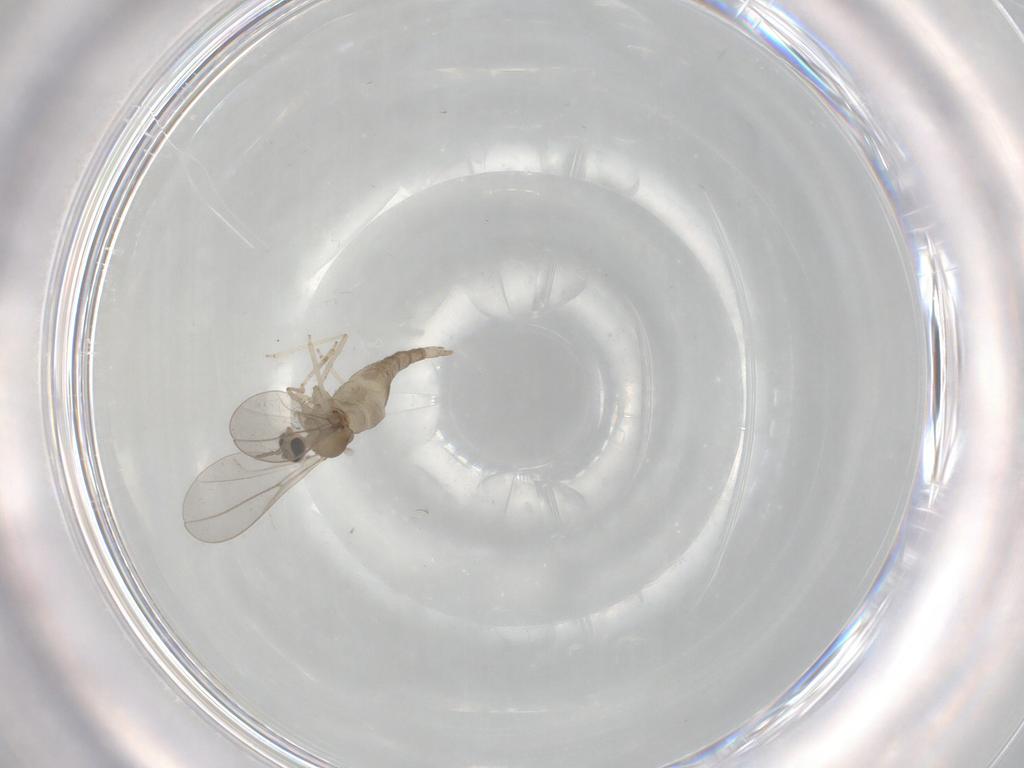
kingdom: Animalia
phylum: Arthropoda
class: Insecta
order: Diptera
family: Cecidomyiidae
